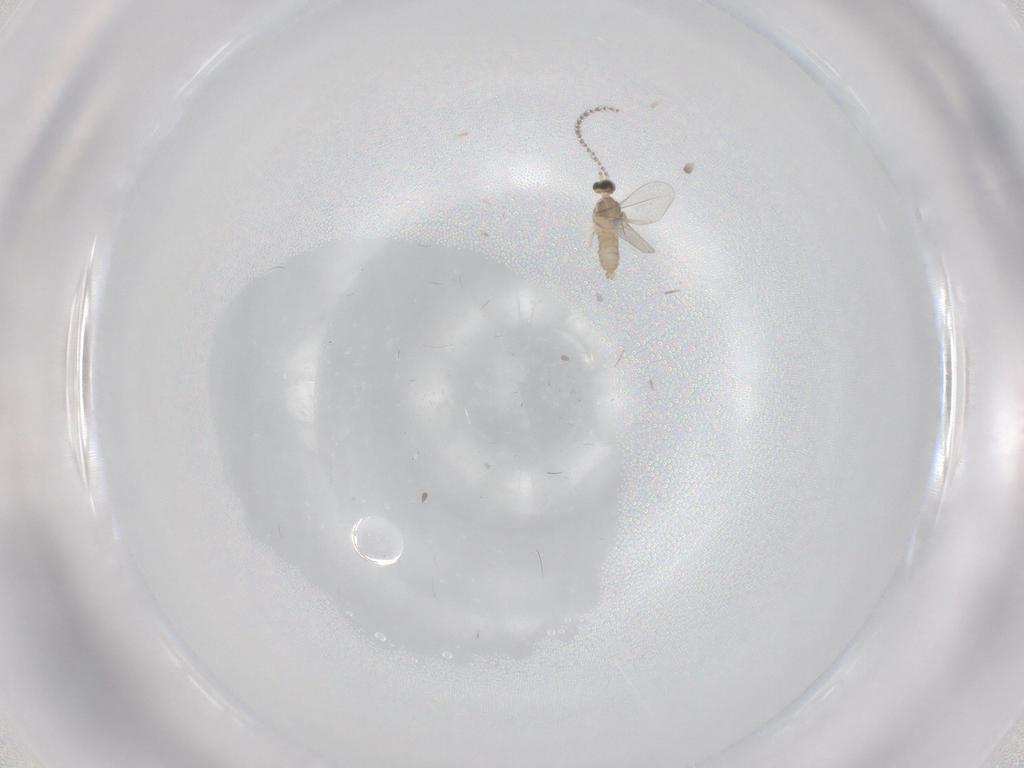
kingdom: Animalia
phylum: Arthropoda
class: Insecta
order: Diptera
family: Cecidomyiidae
